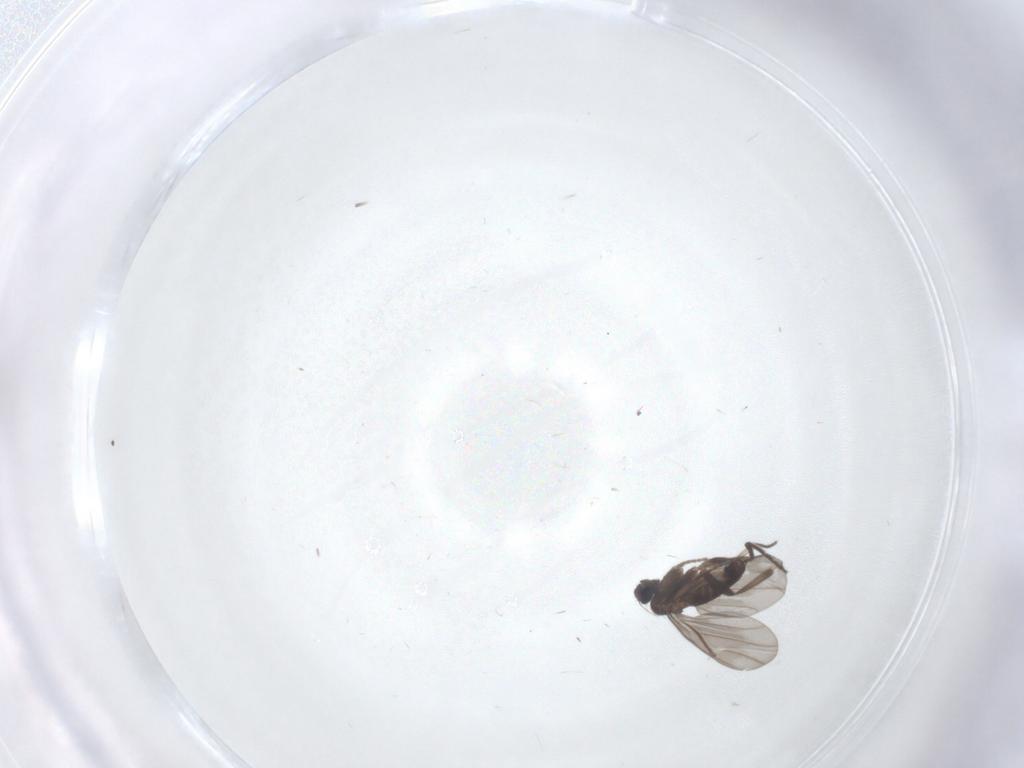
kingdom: Animalia
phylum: Arthropoda
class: Insecta
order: Diptera
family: Phoridae
